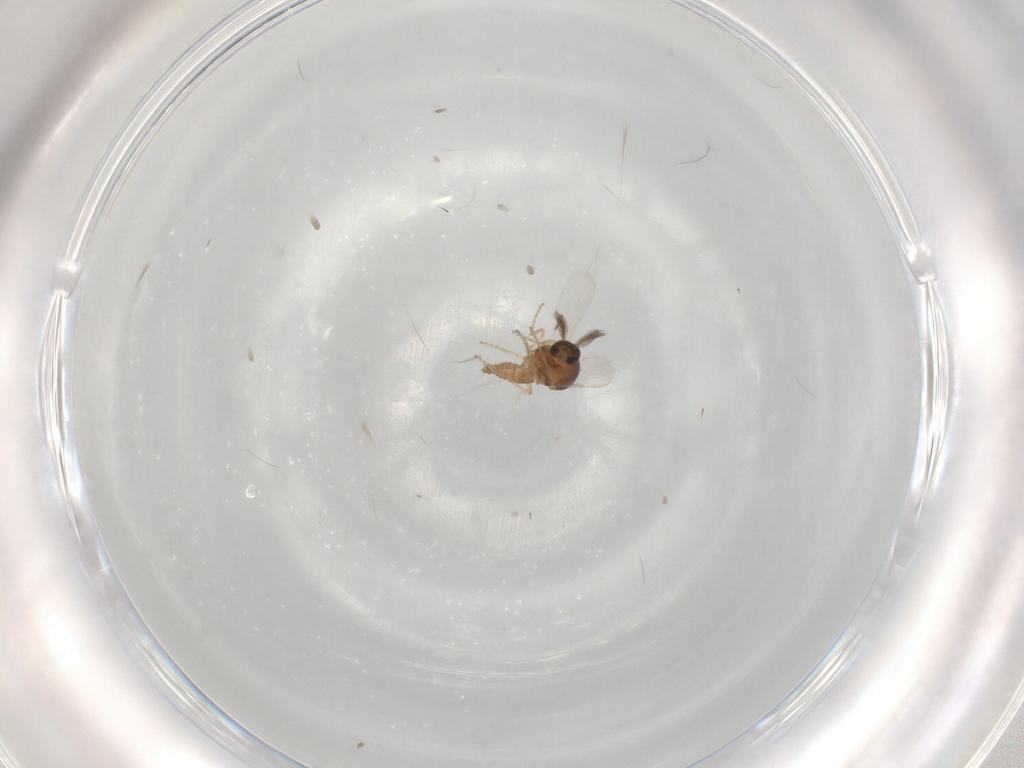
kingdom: Animalia
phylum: Arthropoda
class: Insecta
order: Diptera
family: Ceratopogonidae
